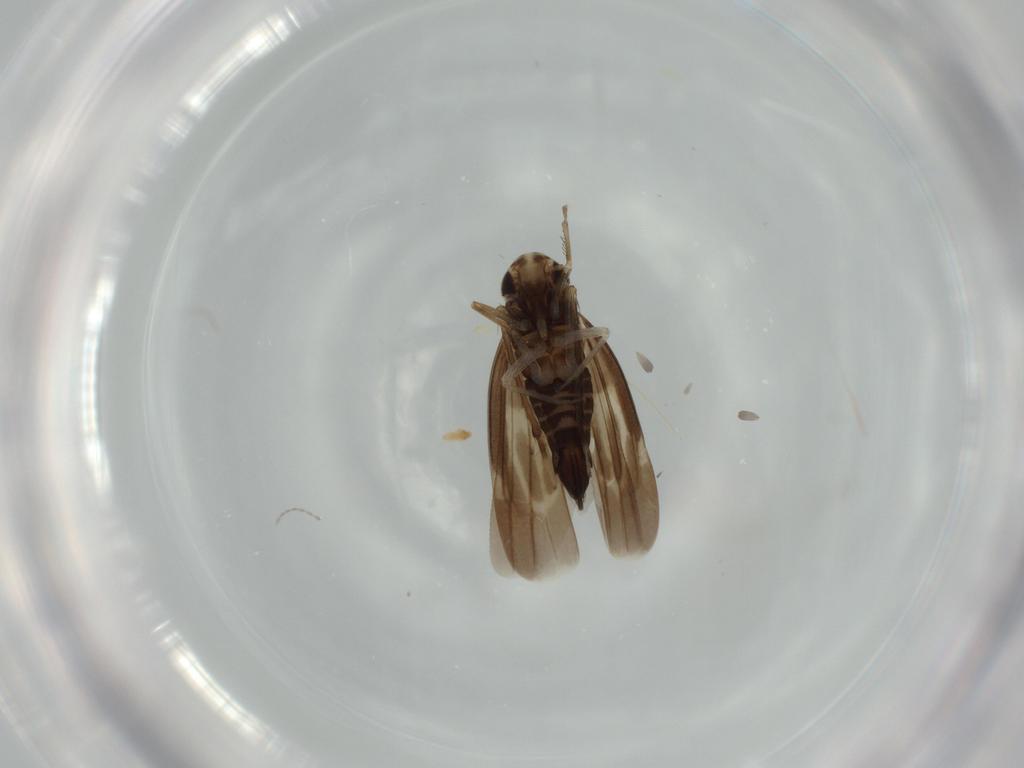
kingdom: Animalia
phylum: Arthropoda
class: Insecta
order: Hemiptera
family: Cicadellidae
